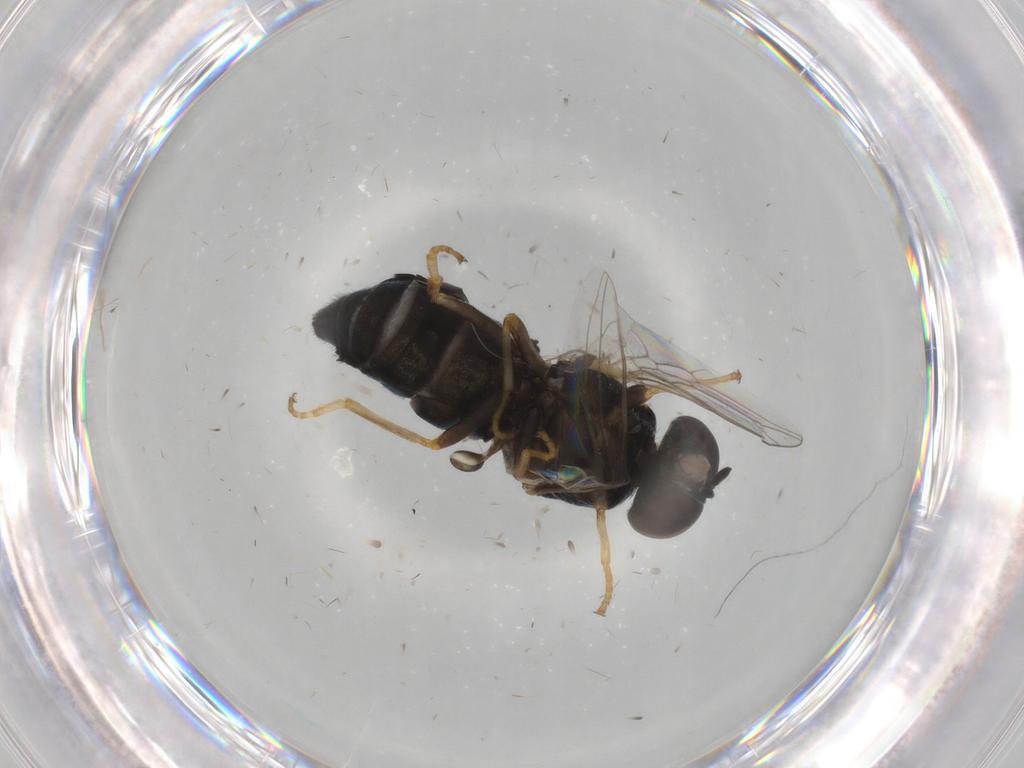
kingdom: Animalia
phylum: Arthropoda
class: Insecta
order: Diptera
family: Scenopinidae
